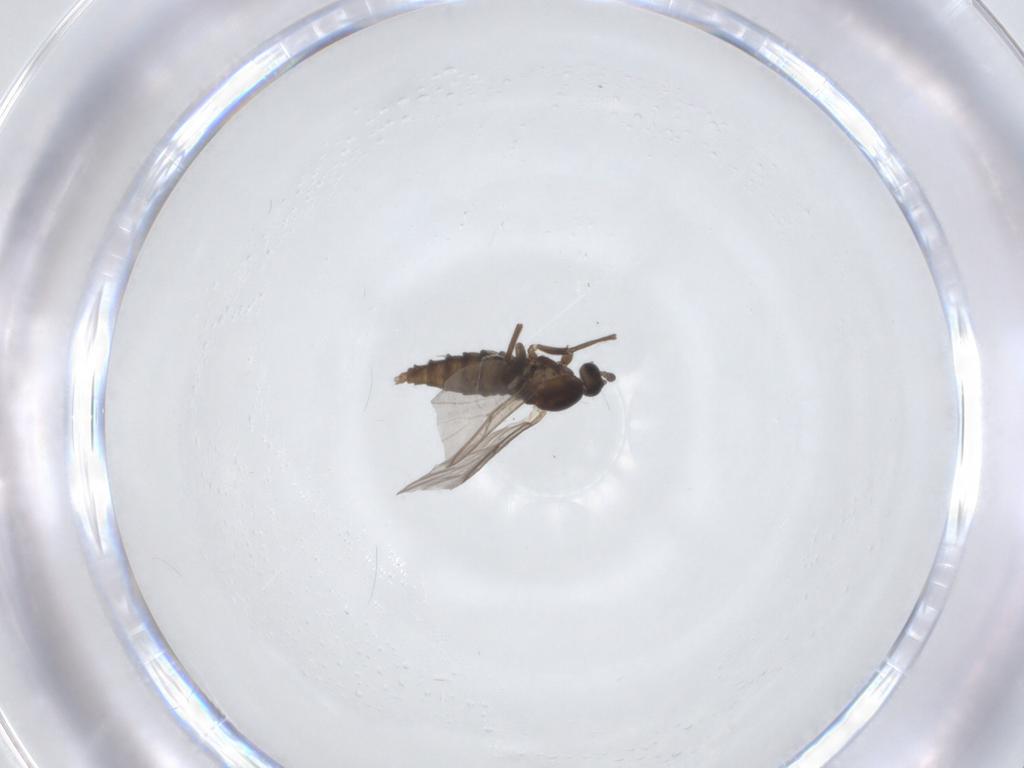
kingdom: Animalia
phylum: Arthropoda
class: Insecta
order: Diptera
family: Cecidomyiidae
